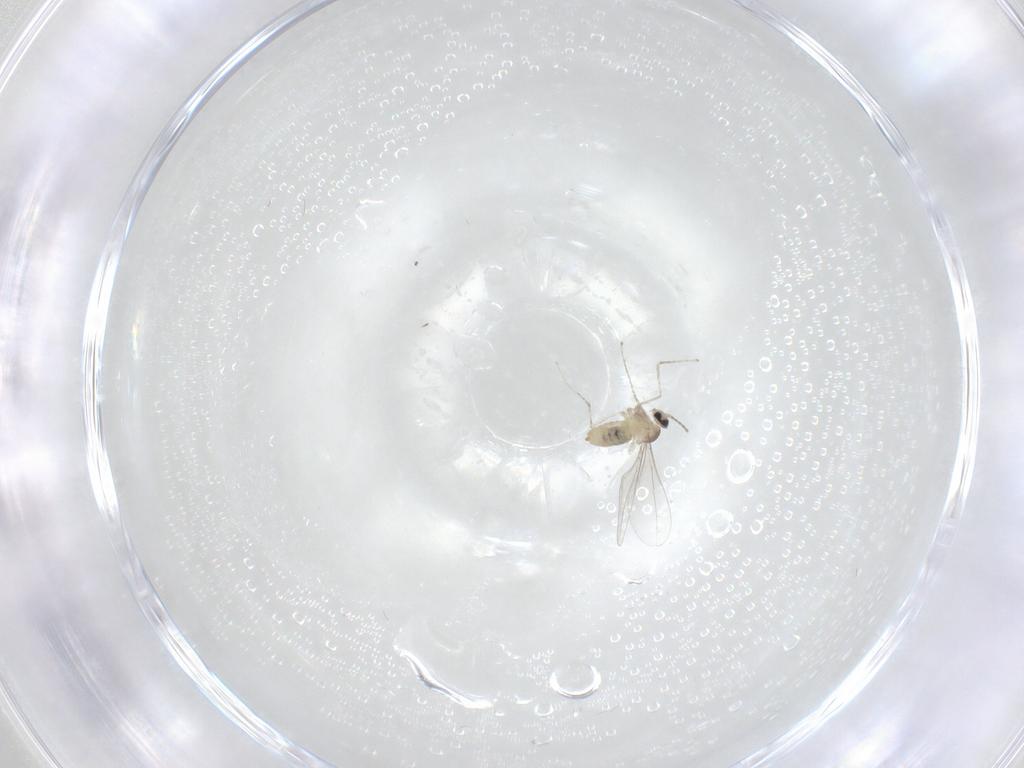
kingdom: Animalia
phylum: Arthropoda
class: Insecta
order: Diptera
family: Cecidomyiidae
